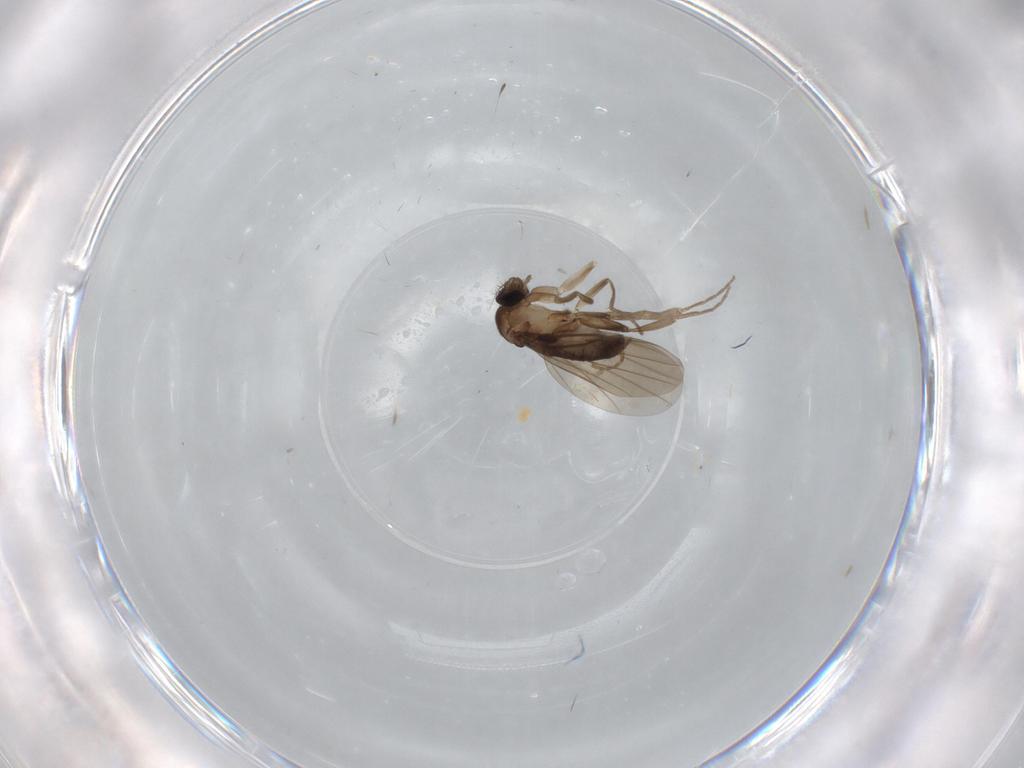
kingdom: Animalia
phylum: Arthropoda
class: Insecta
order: Diptera
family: Phoridae
